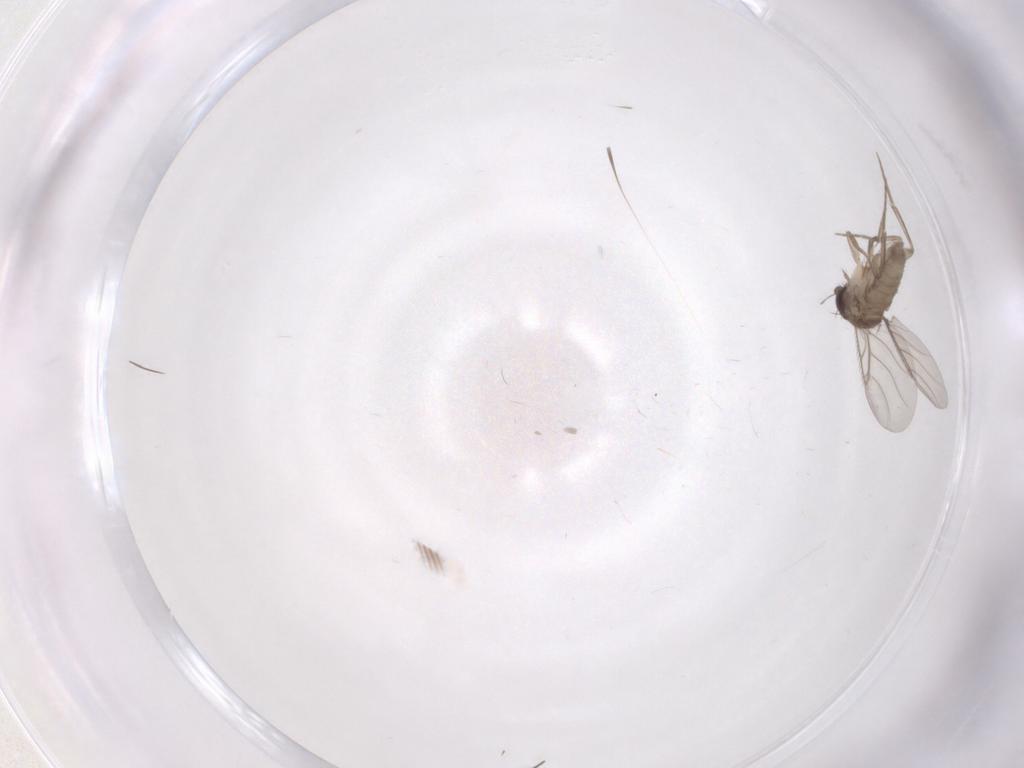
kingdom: Animalia
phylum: Arthropoda
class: Insecta
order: Diptera
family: Phoridae
